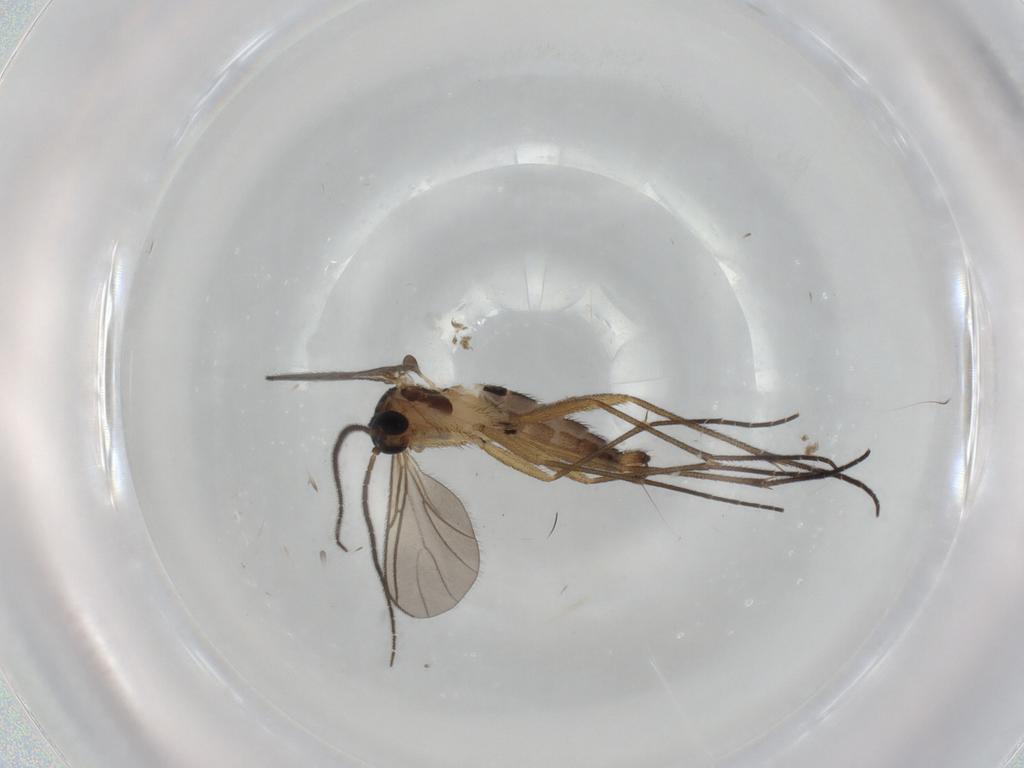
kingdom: Animalia
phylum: Arthropoda
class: Insecta
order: Diptera
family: Sciaridae
